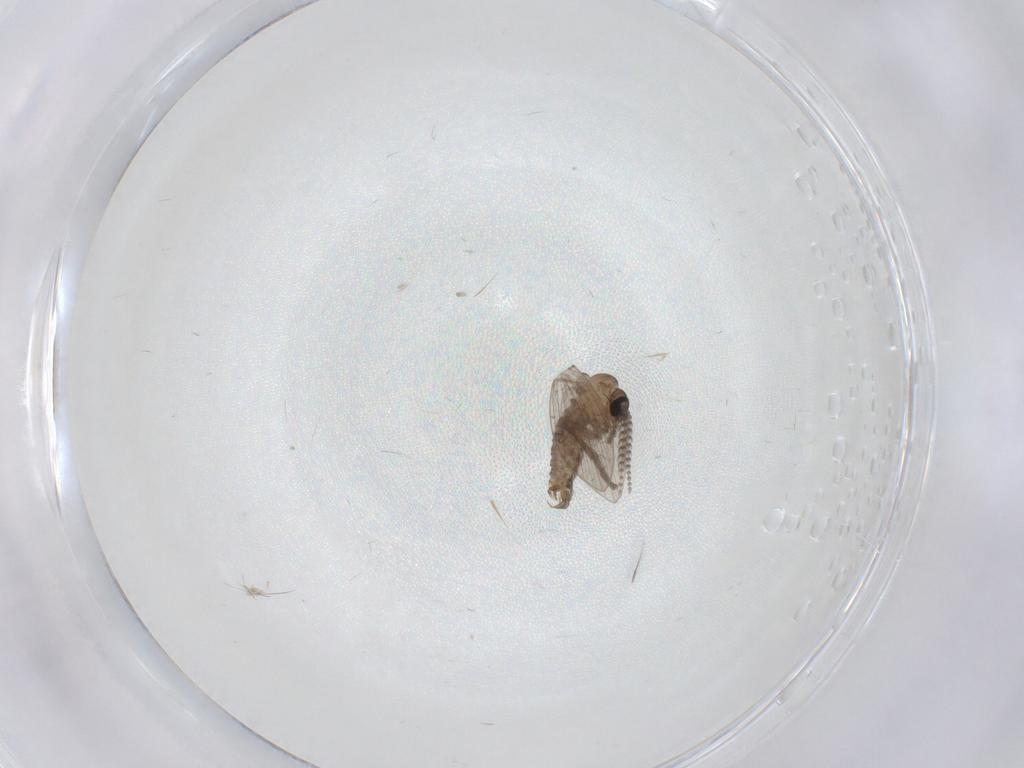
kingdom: Animalia
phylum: Arthropoda
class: Insecta
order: Diptera
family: Psychodidae
